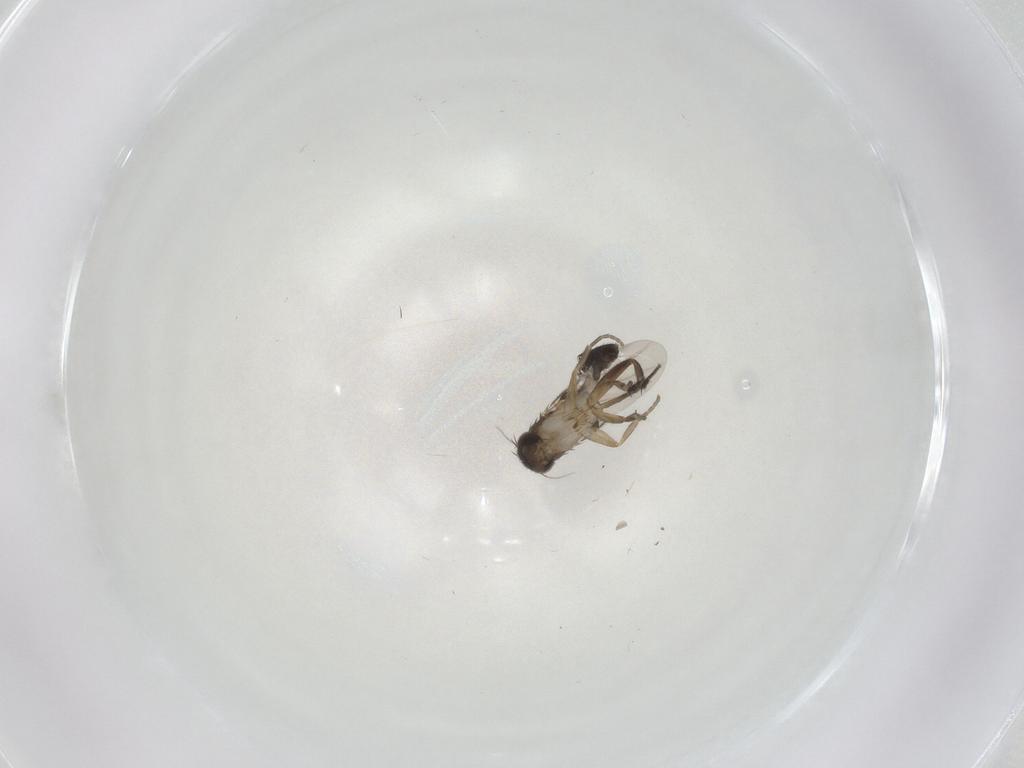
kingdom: Animalia
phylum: Arthropoda
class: Insecta
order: Diptera
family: Phoridae
